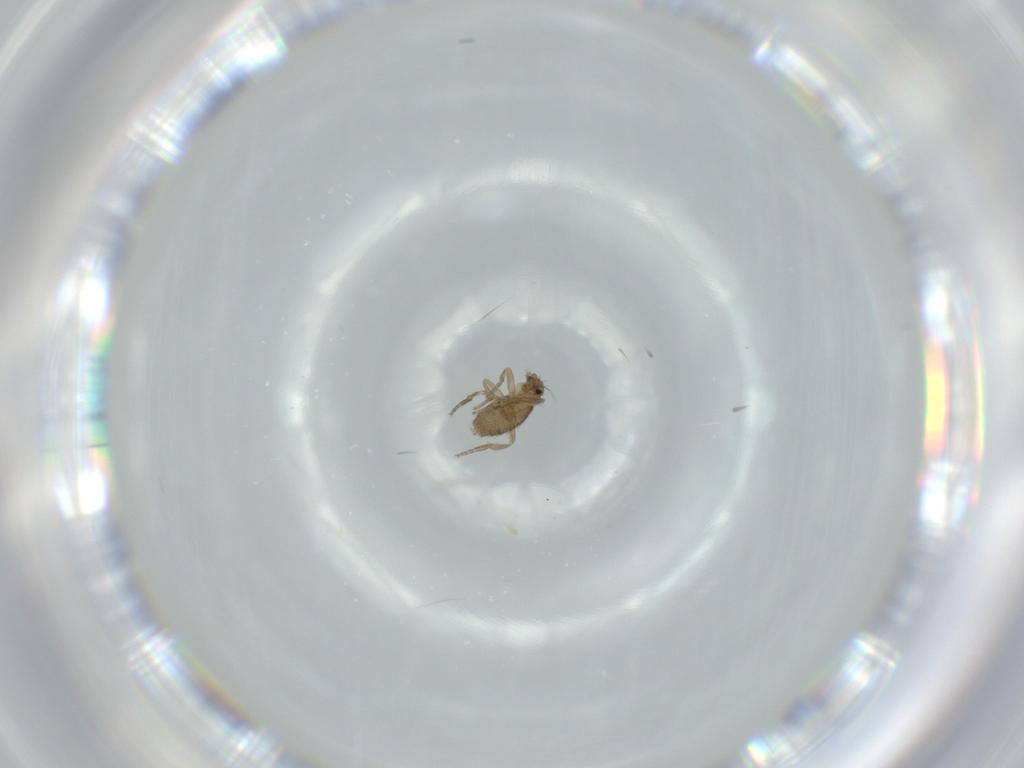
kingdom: Animalia
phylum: Arthropoda
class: Insecta
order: Diptera
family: Phoridae
